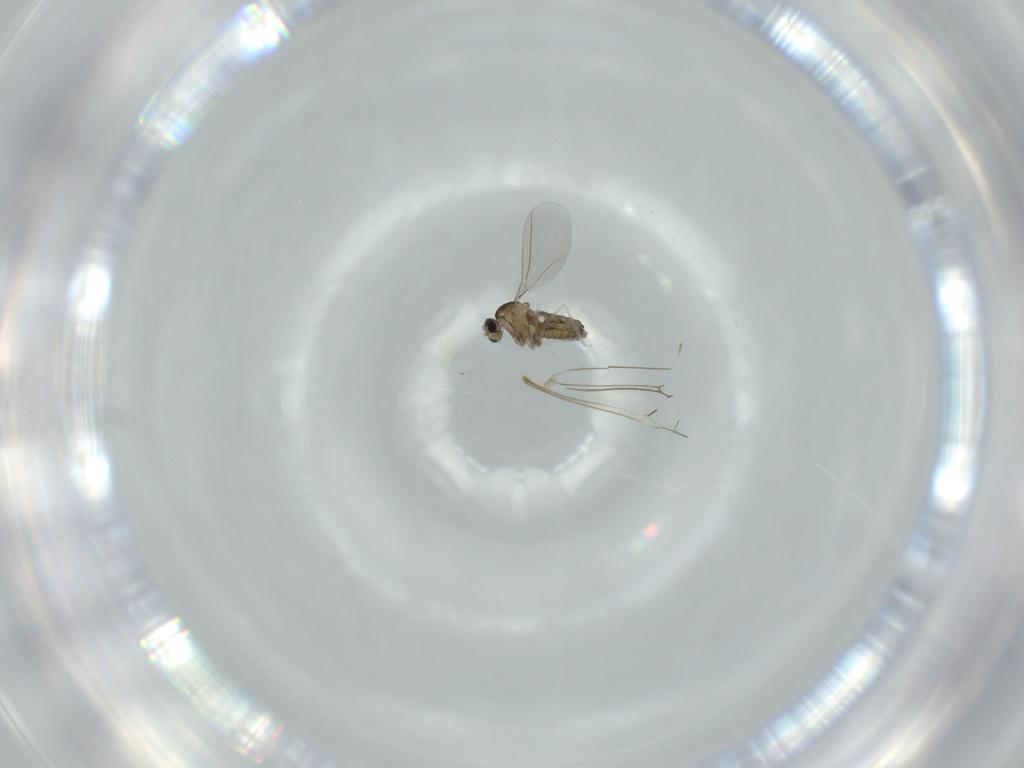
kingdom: Animalia
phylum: Arthropoda
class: Insecta
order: Diptera
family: Cecidomyiidae
